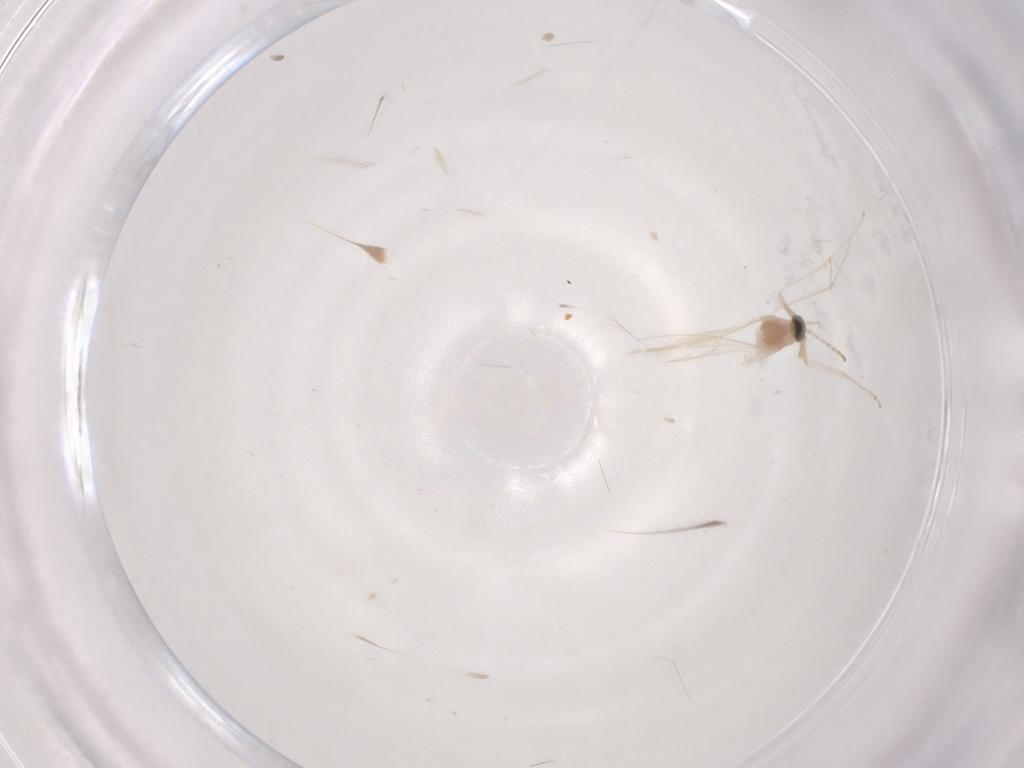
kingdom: Animalia
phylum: Arthropoda
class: Insecta
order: Diptera
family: Cecidomyiidae
